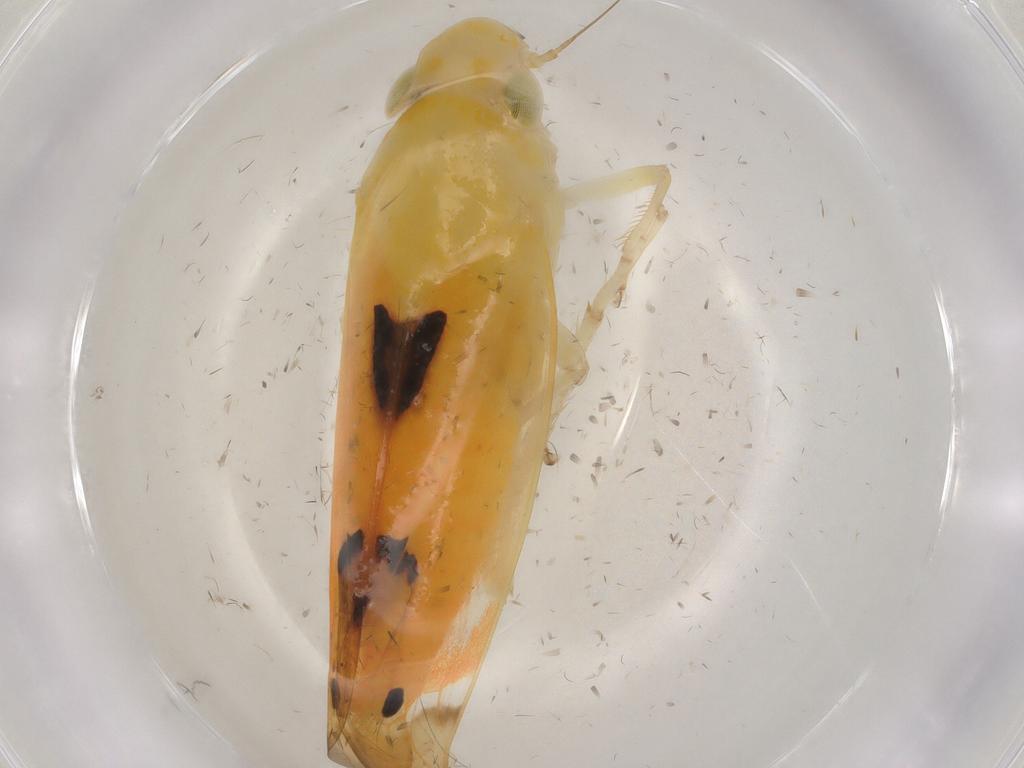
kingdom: Animalia
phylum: Arthropoda
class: Insecta
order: Hemiptera
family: Cicadellidae
